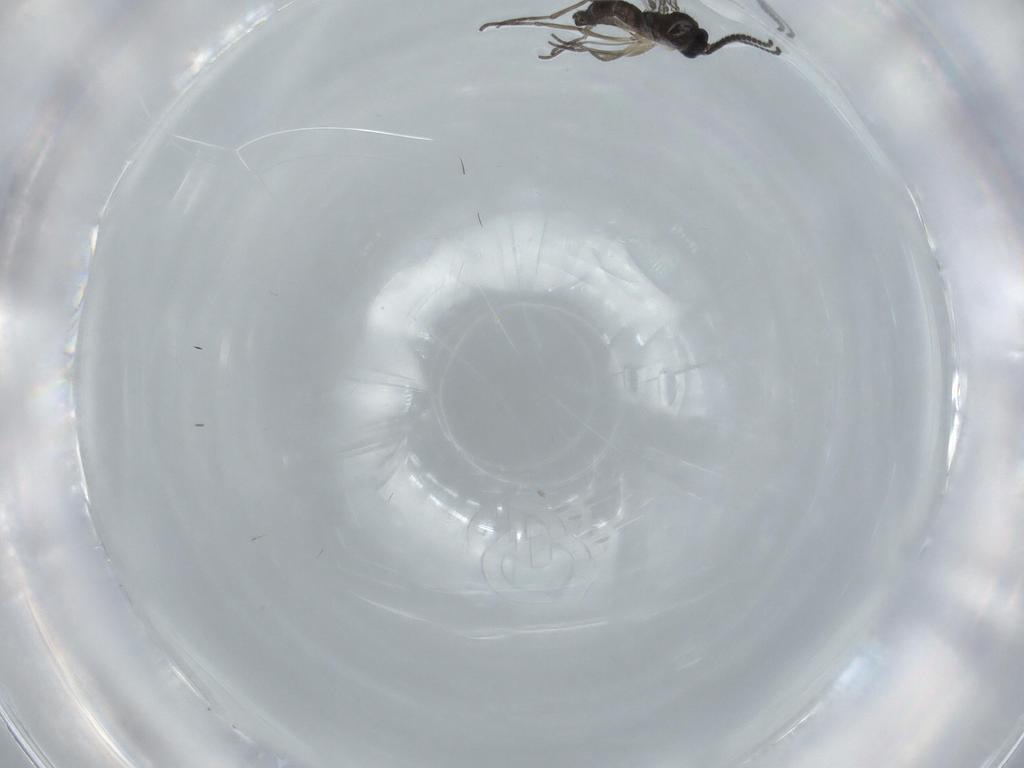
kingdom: Animalia
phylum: Arthropoda
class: Insecta
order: Diptera
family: Sciaridae
